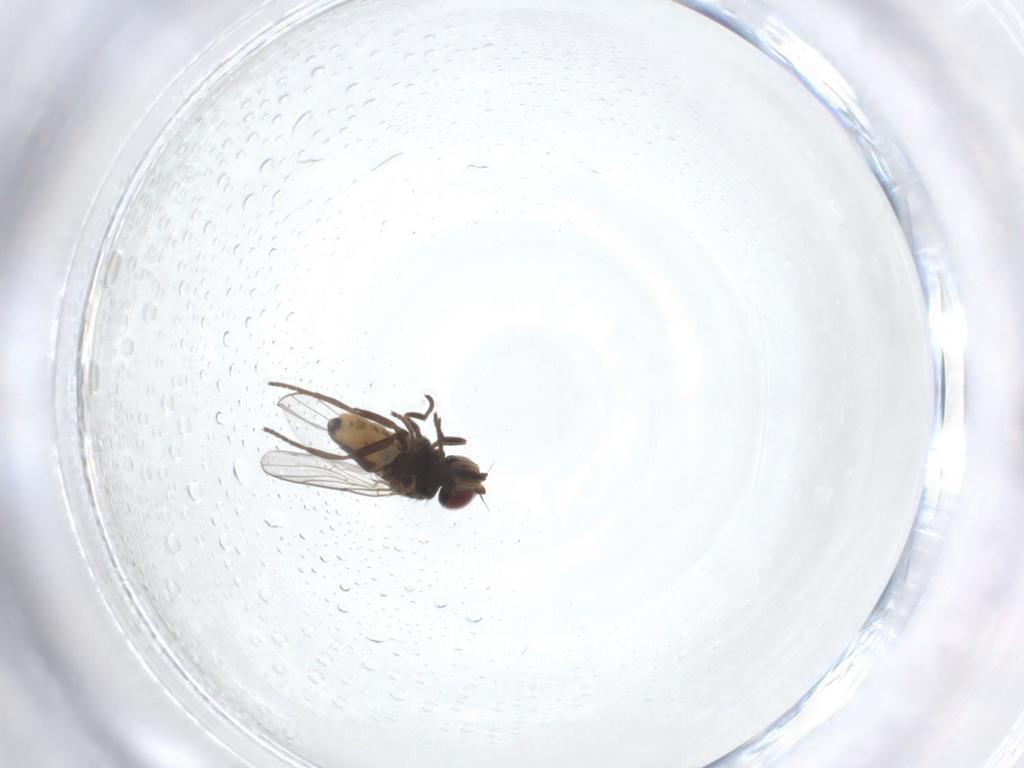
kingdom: Animalia
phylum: Arthropoda
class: Insecta
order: Diptera
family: Chloropidae
